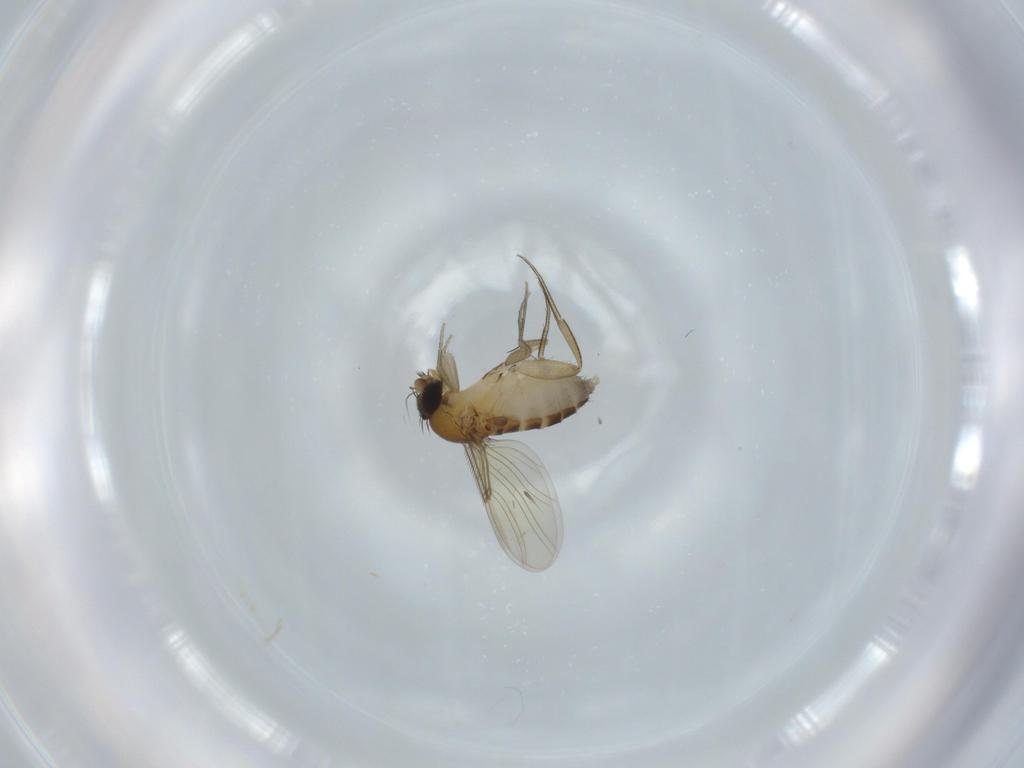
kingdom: Animalia
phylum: Arthropoda
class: Insecta
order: Diptera
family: Phoridae
